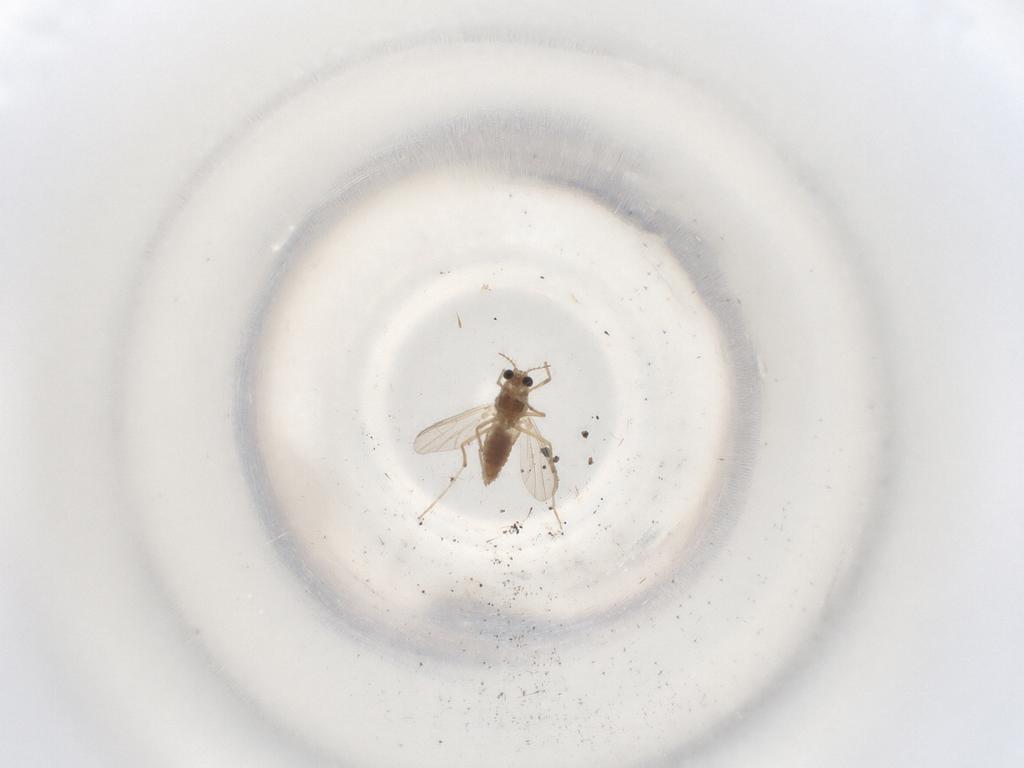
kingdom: Animalia
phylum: Arthropoda
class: Insecta
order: Diptera
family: Chironomidae
